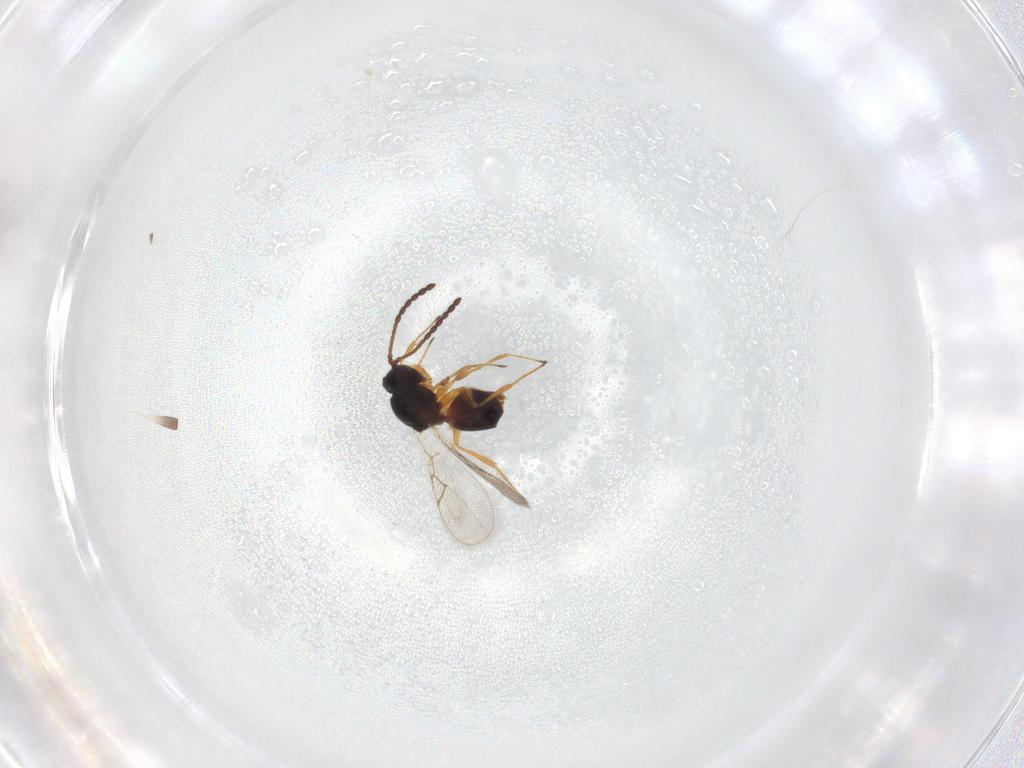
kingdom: Animalia
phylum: Arthropoda
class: Insecta
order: Hymenoptera
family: Figitidae
